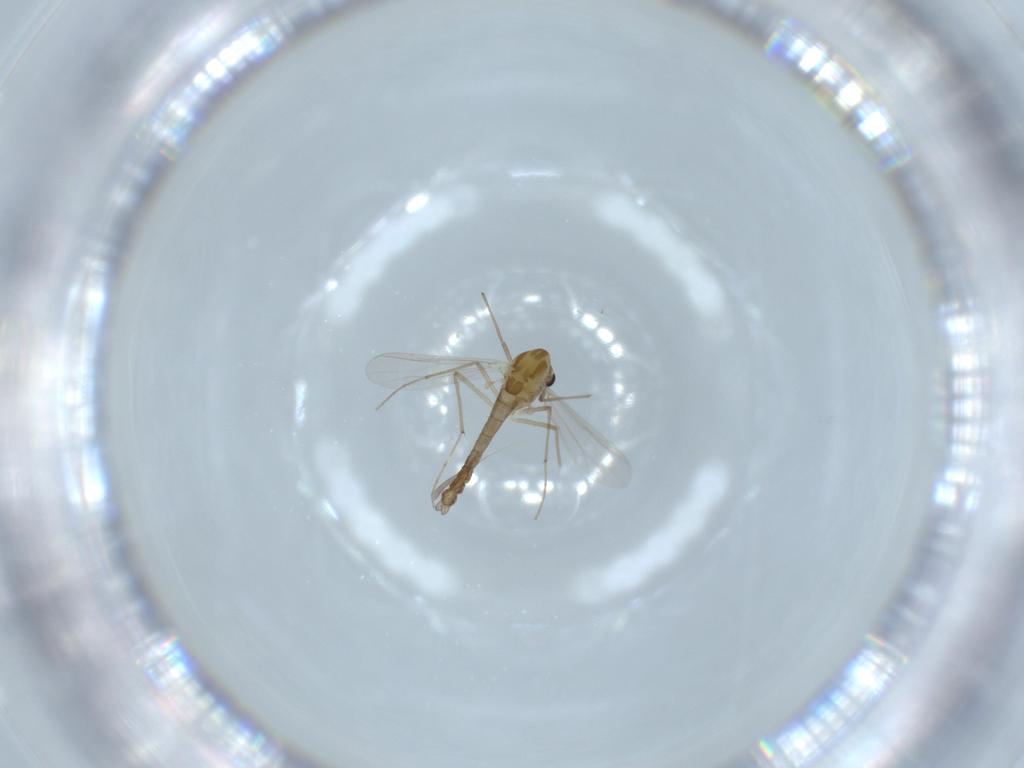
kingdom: Animalia
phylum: Arthropoda
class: Insecta
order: Diptera
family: Chironomidae
